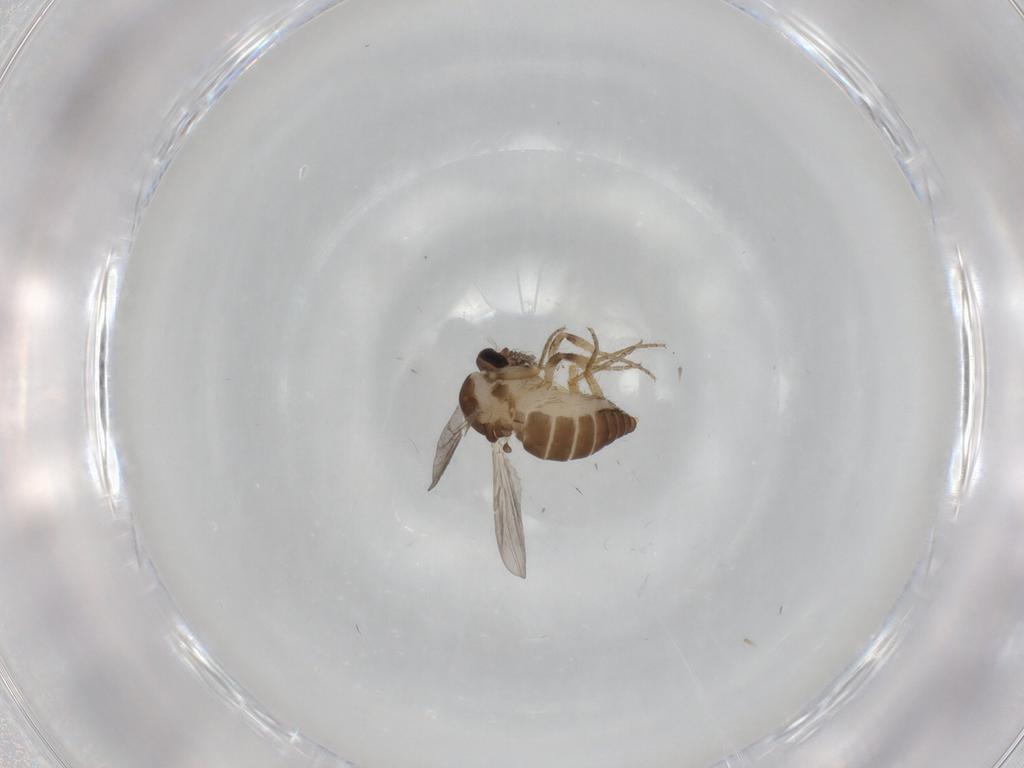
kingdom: Animalia
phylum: Arthropoda
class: Insecta
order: Diptera
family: Ceratopogonidae
